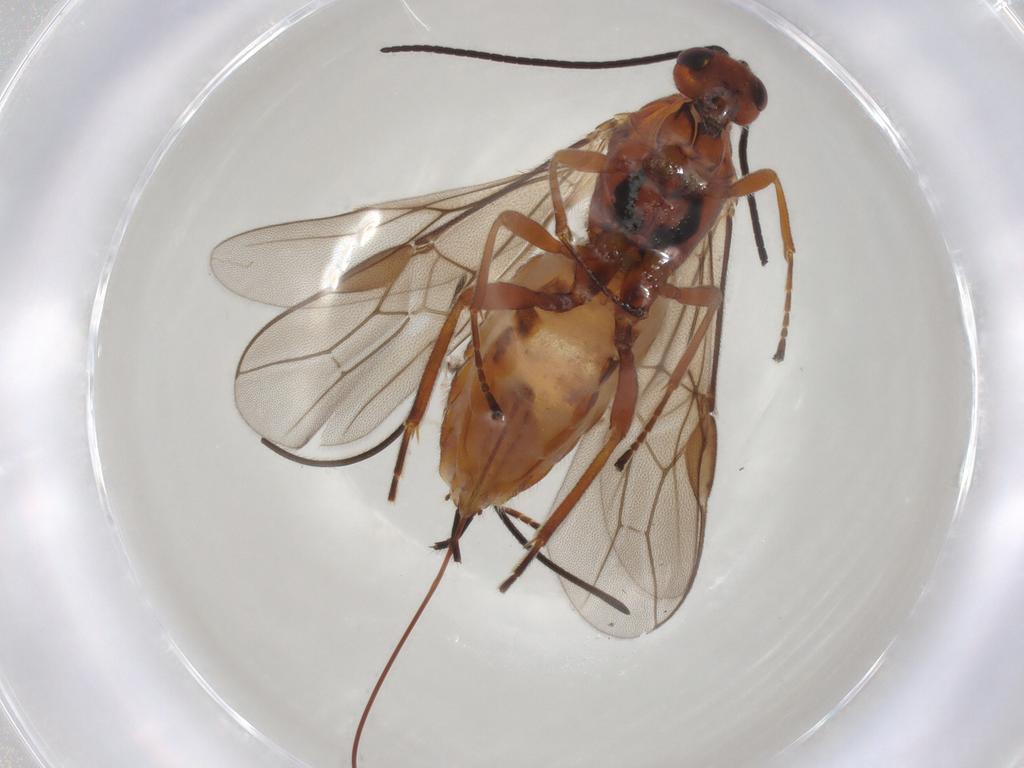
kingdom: Animalia
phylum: Arthropoda
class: Insecta
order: Hymenoptera
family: Braconidae
